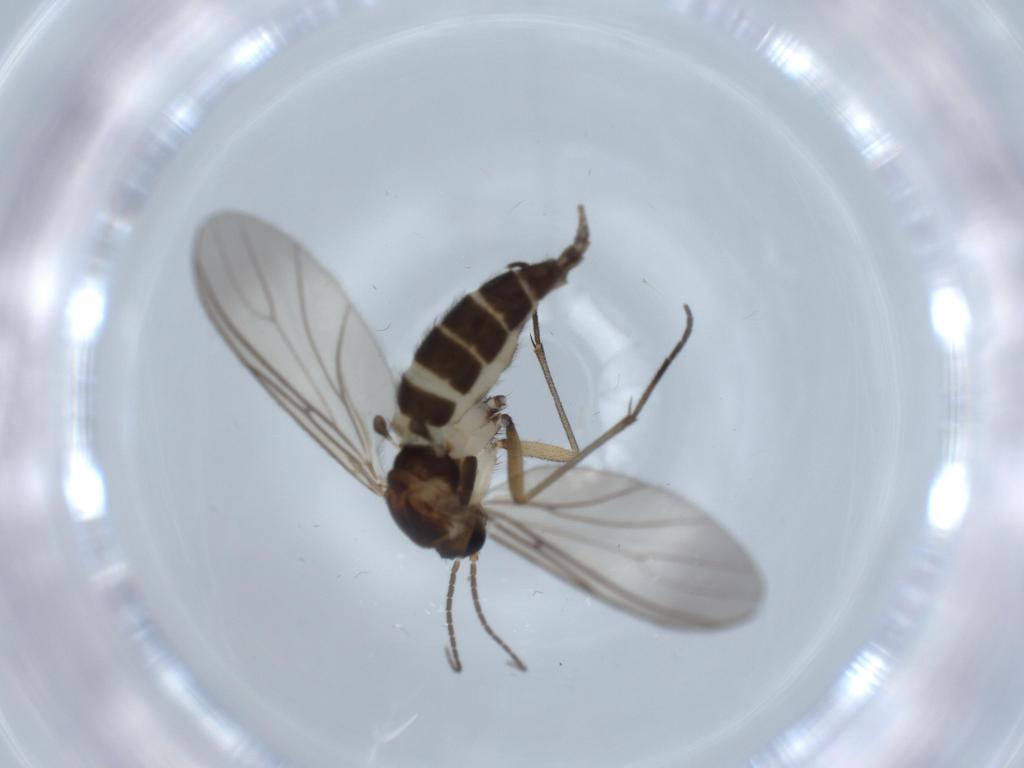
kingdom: Animalia
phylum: Arthropoda
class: Insecta
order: Diptera
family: Sciaridae
